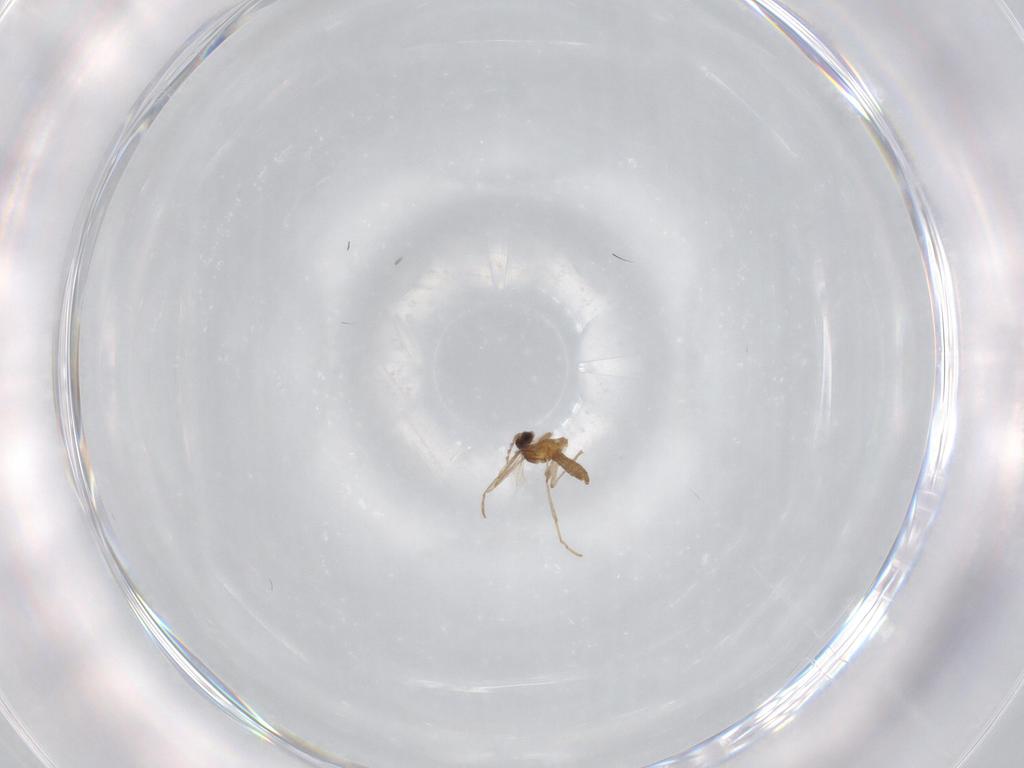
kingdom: Animalia
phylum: Arthropoda
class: Insecta
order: Diptera
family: Cecidomyiidae
